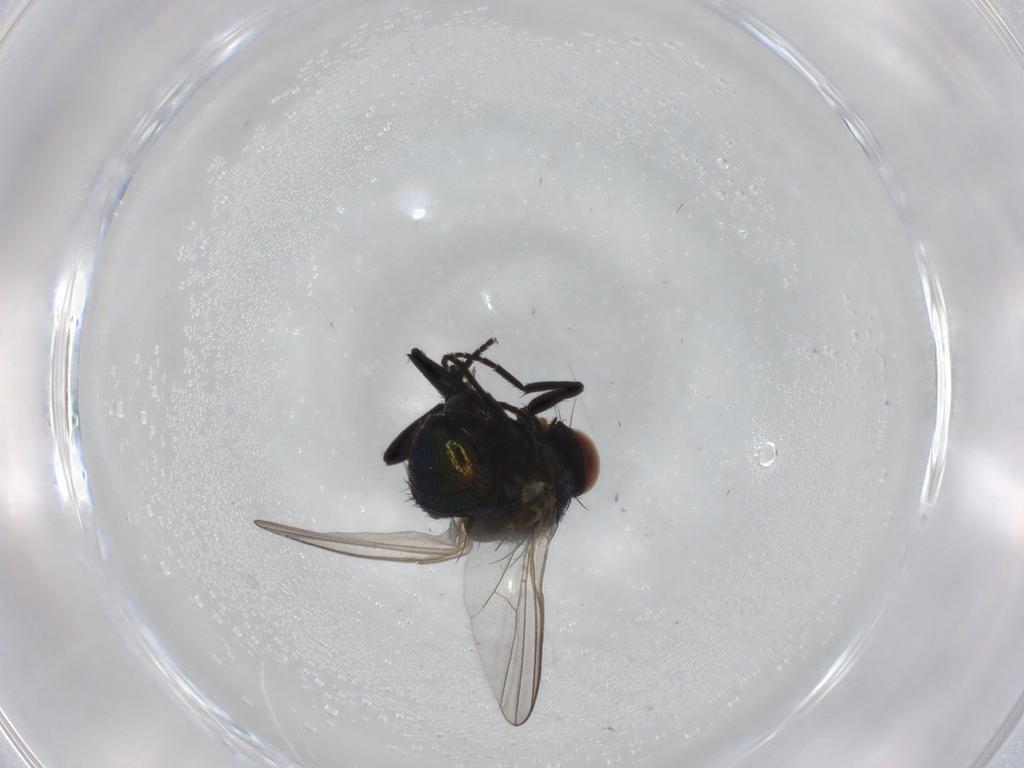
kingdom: Animalia
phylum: Arthropoda
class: Insecta
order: Diptera
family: Agromyzidae
